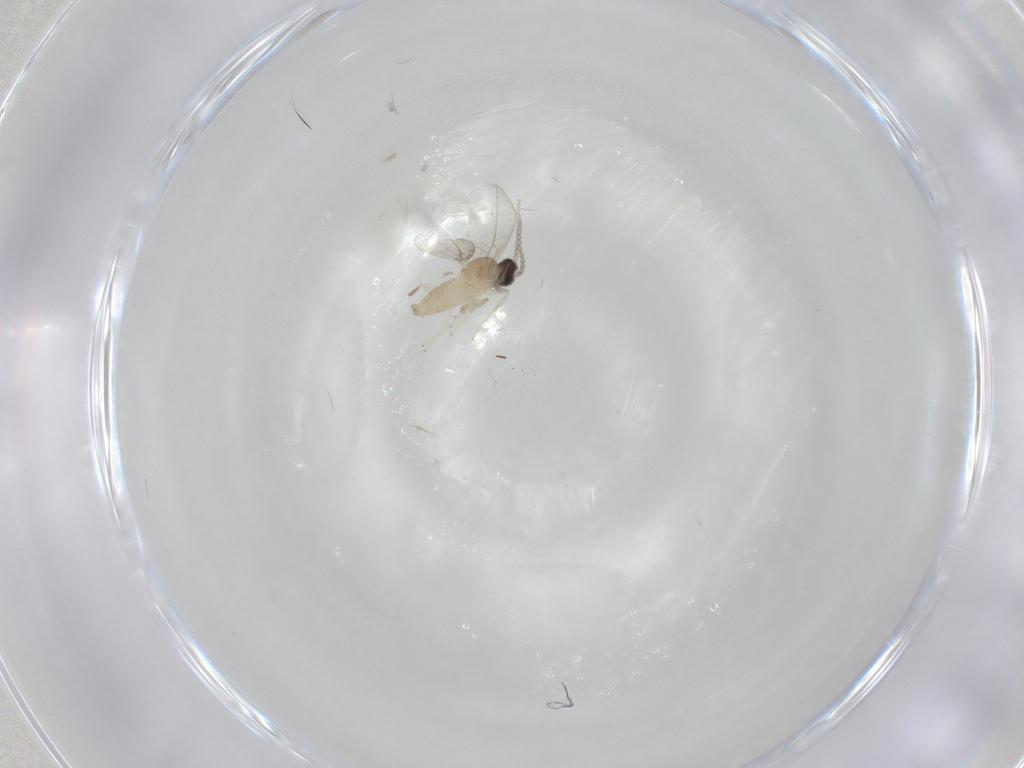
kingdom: Animalia
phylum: Arthropoda
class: Insecta
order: Diptera
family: Cecidomyiidae
